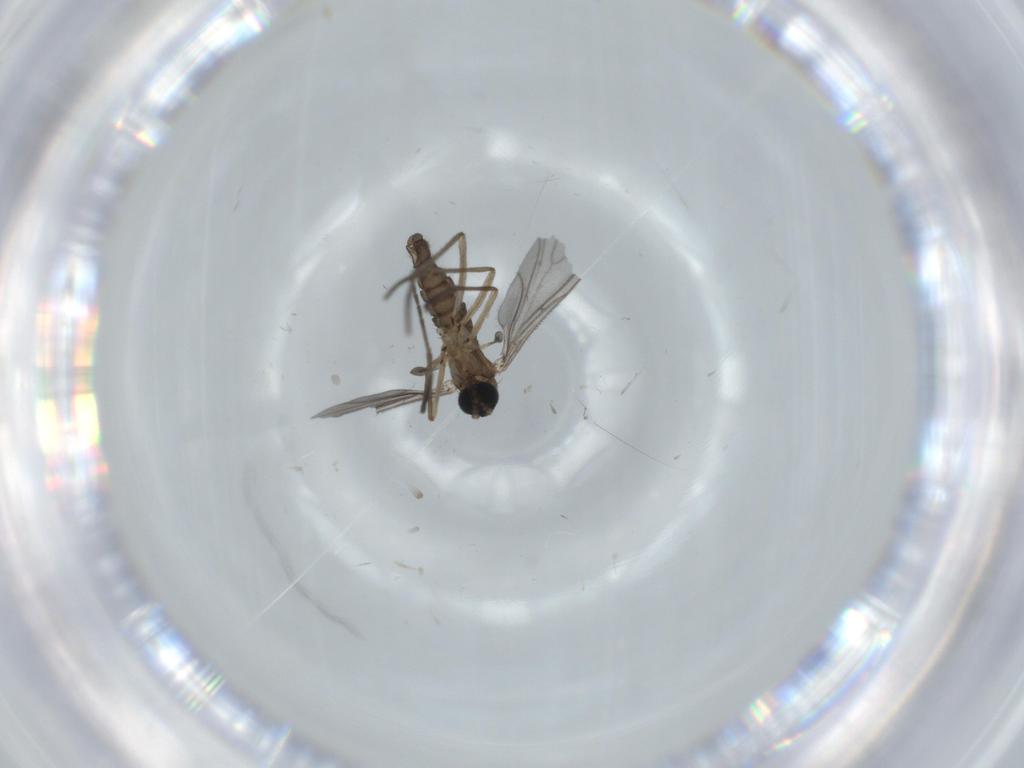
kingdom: Animalia
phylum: Arthropoda
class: Insecta
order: Diptera
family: Sciaridae
